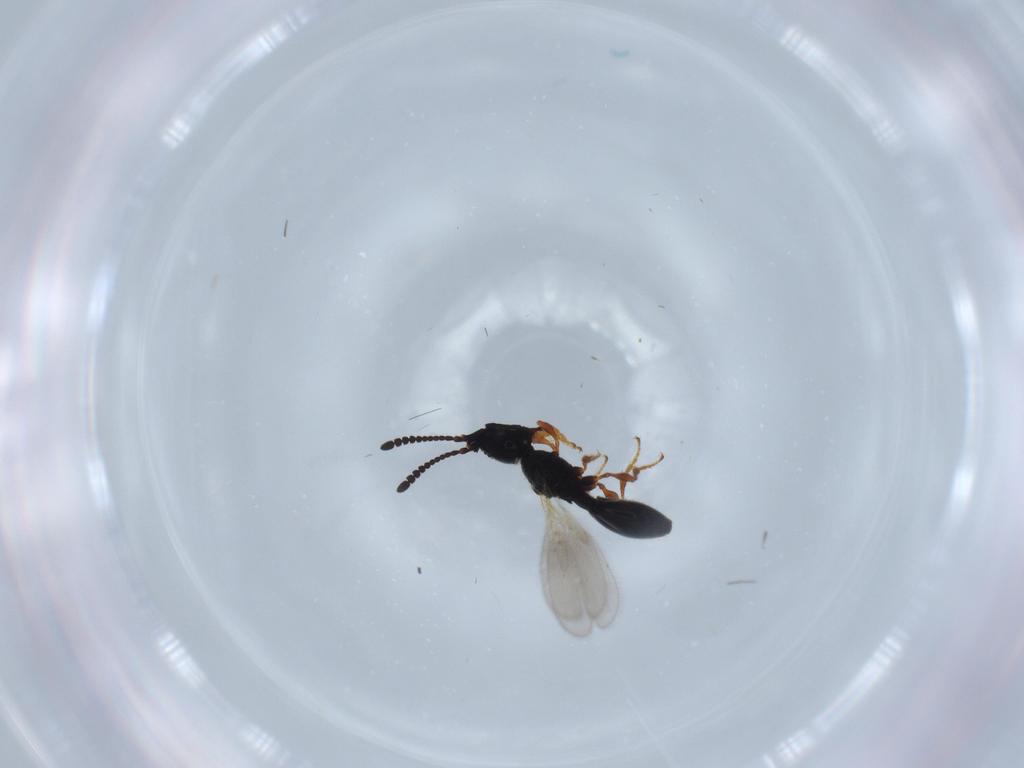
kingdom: Animalia
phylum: Arthropoda
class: Insecta
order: Hymenoptera
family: Diapriidae
